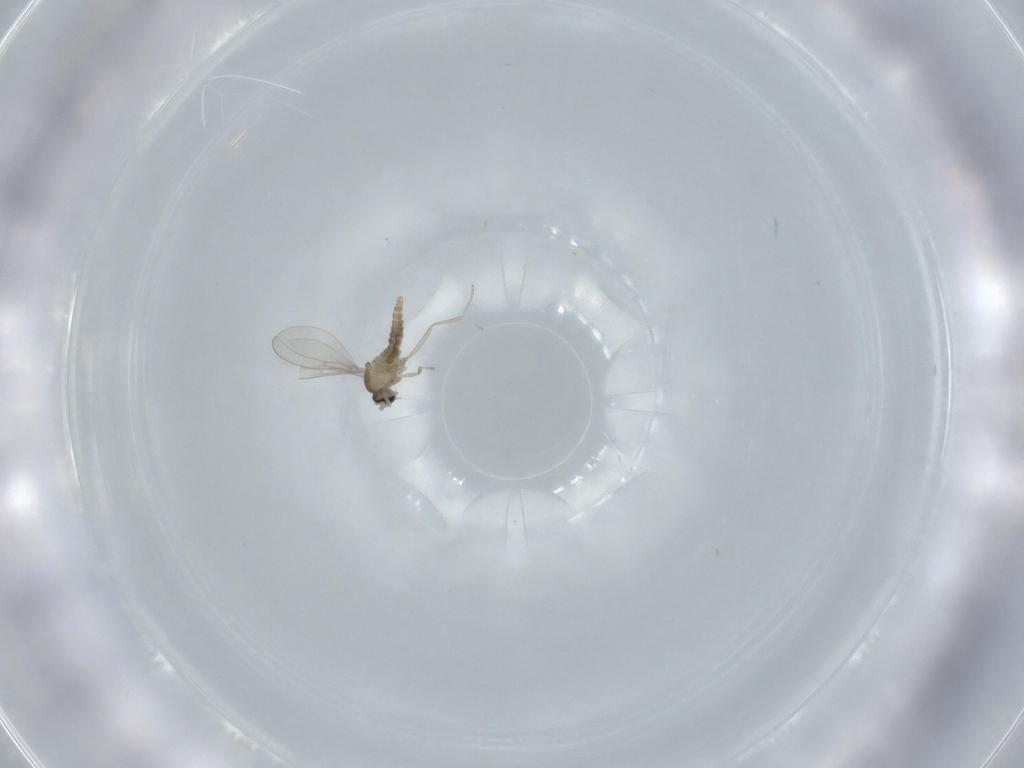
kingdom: Animalia
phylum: Arthropoda
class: Insecta
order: Diptera
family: Cecidomyiidae
